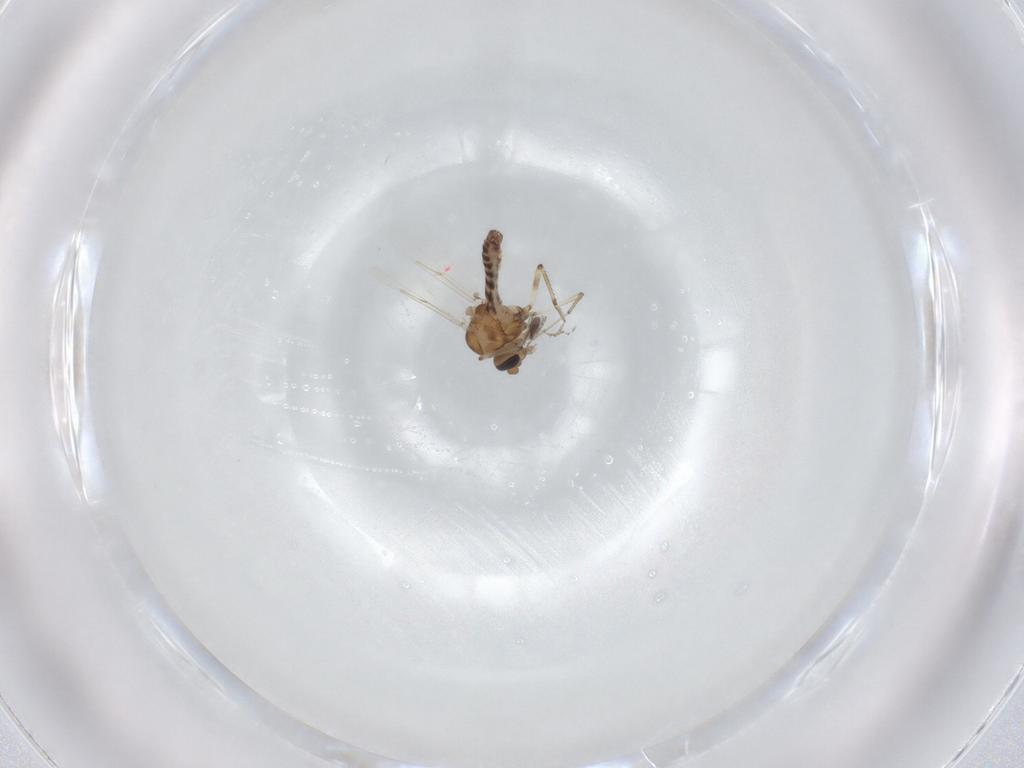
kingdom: Animalia
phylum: Arthropoda
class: Insecta
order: Diptera
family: Ceratopogonidae
